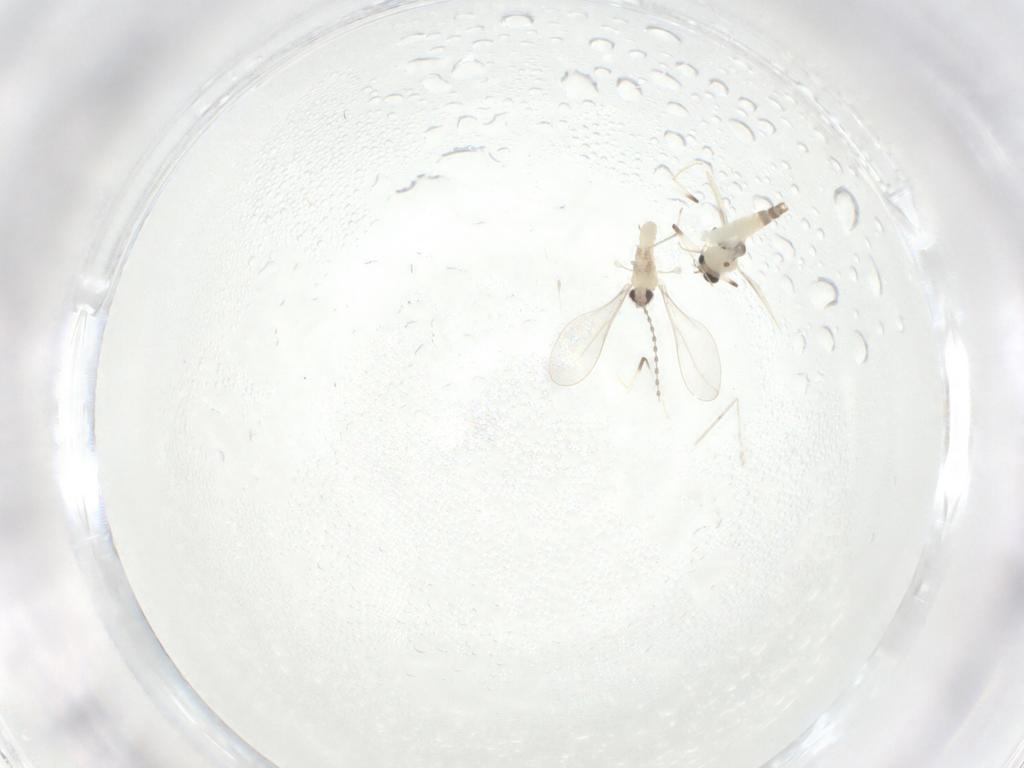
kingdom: Animalia
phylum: Arthropoda
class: Insecta
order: Diptera
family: Chironomidae
